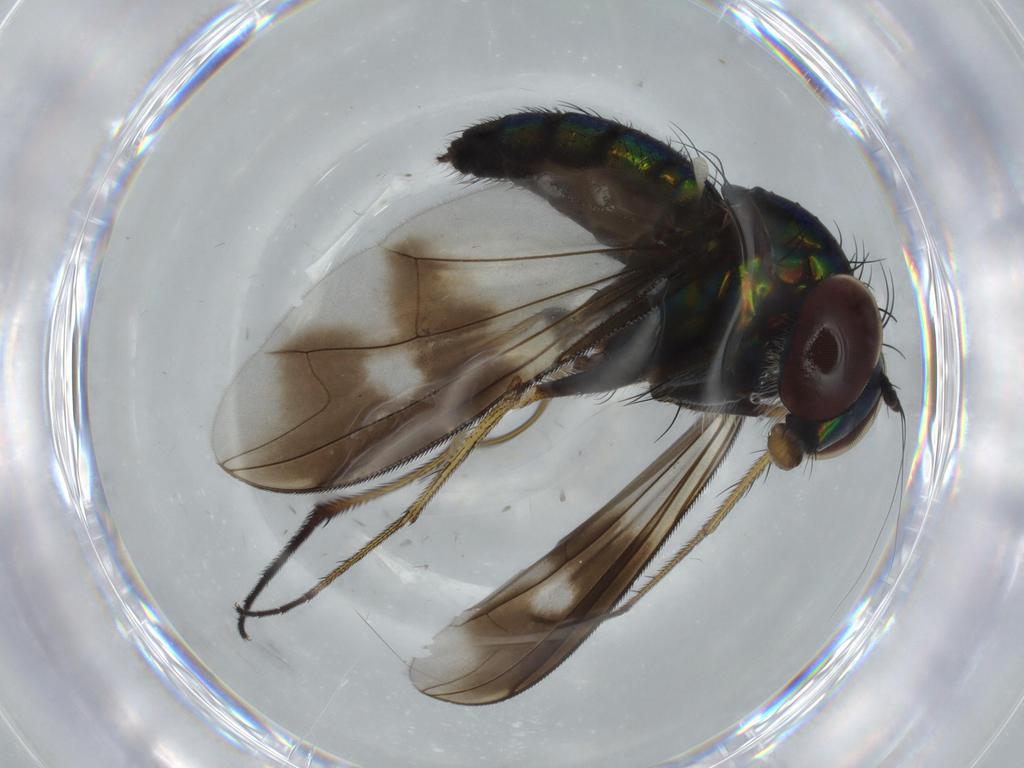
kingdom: Animalia
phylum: Arthropoda
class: Insecta
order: Diptera
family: Dolichopodidae
